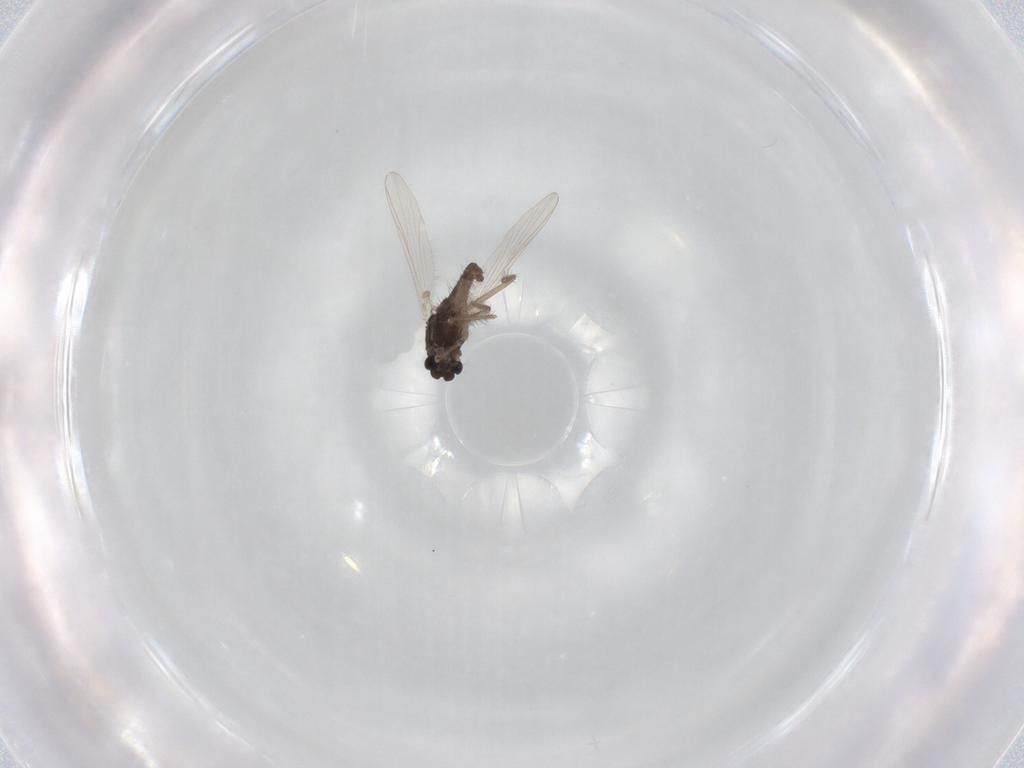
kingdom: Animalia
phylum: Arthropoda
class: Insecta
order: Diptera
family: Chironomidae
